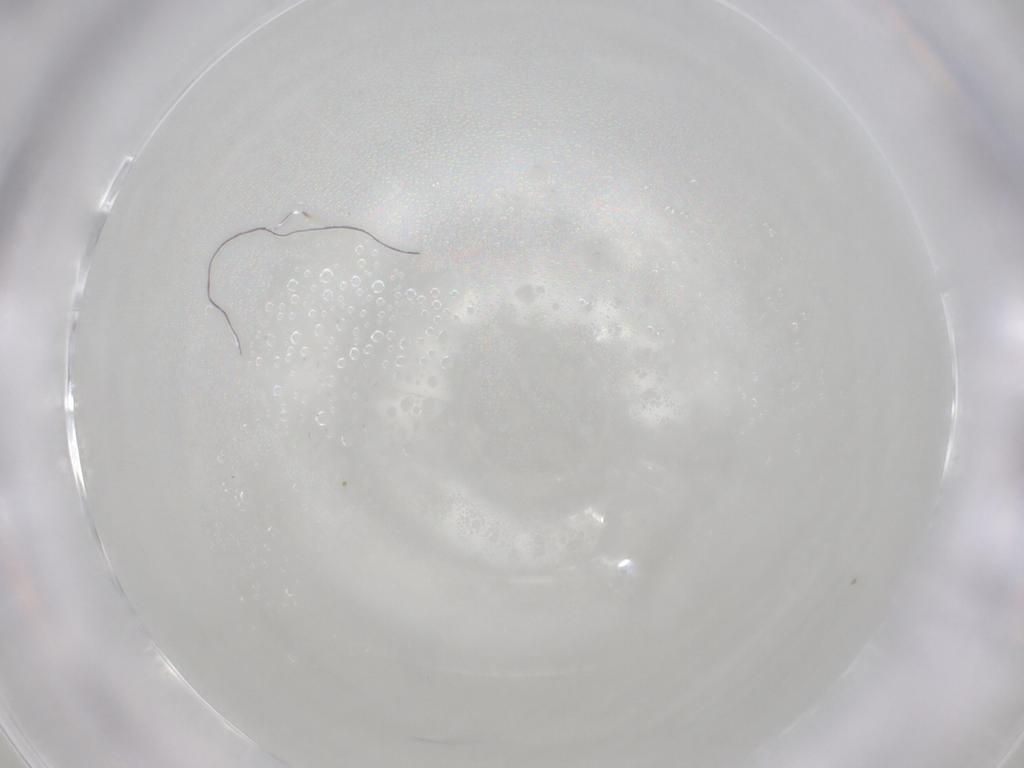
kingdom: Animalia
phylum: Arthropoda
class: Arachnida
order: Mesostigmata
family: Digamasellidae
